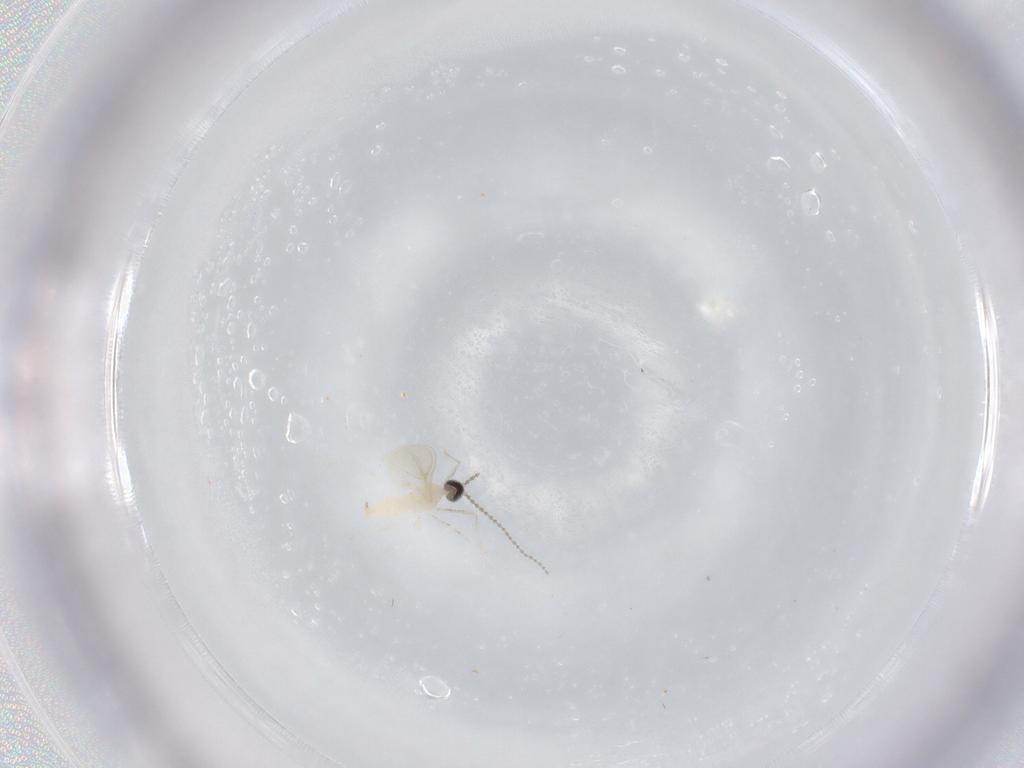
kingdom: Animalia
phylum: Arthropoda
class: Insecta
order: Diptera
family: Cecidomyiidae
